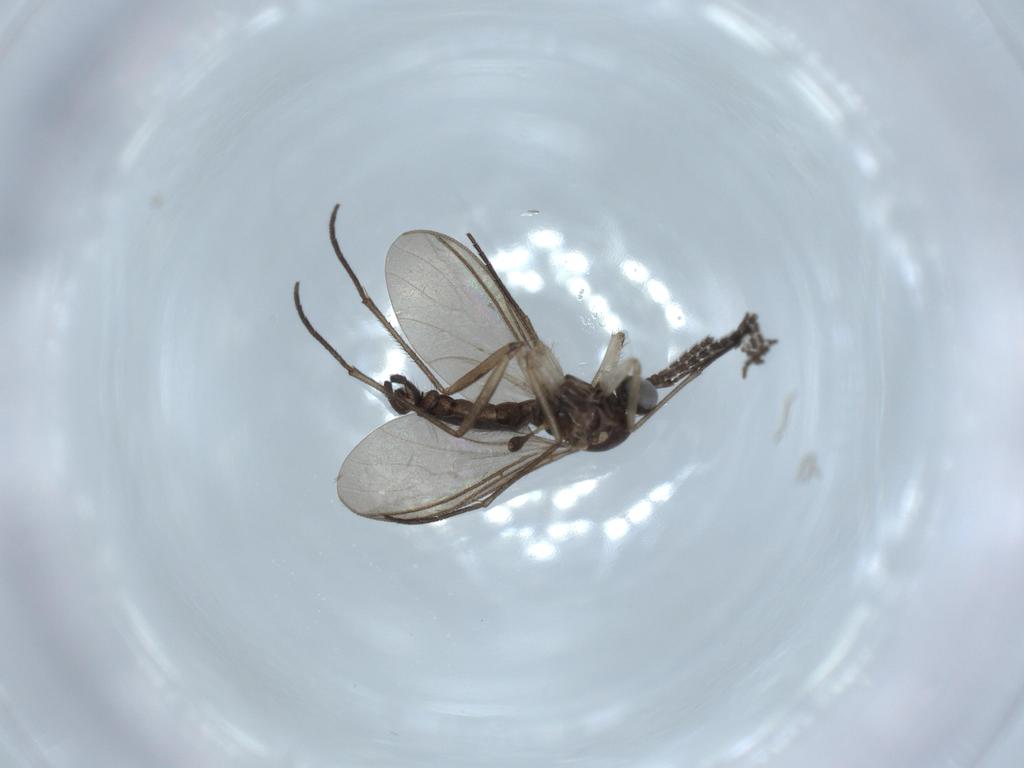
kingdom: Animalia
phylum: Arthropoda
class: Insecta
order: Diptera
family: Sciaridae
